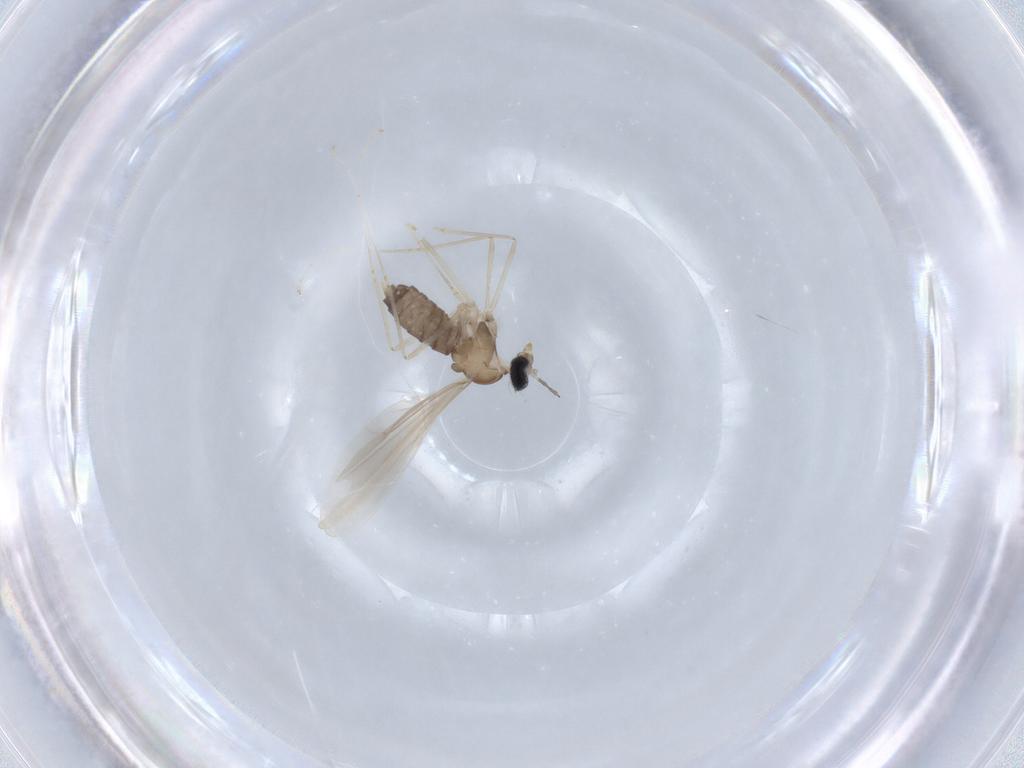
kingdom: Animalia
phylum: Arthropoda
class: Insecta
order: Diptera
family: Cecidomyiidae
